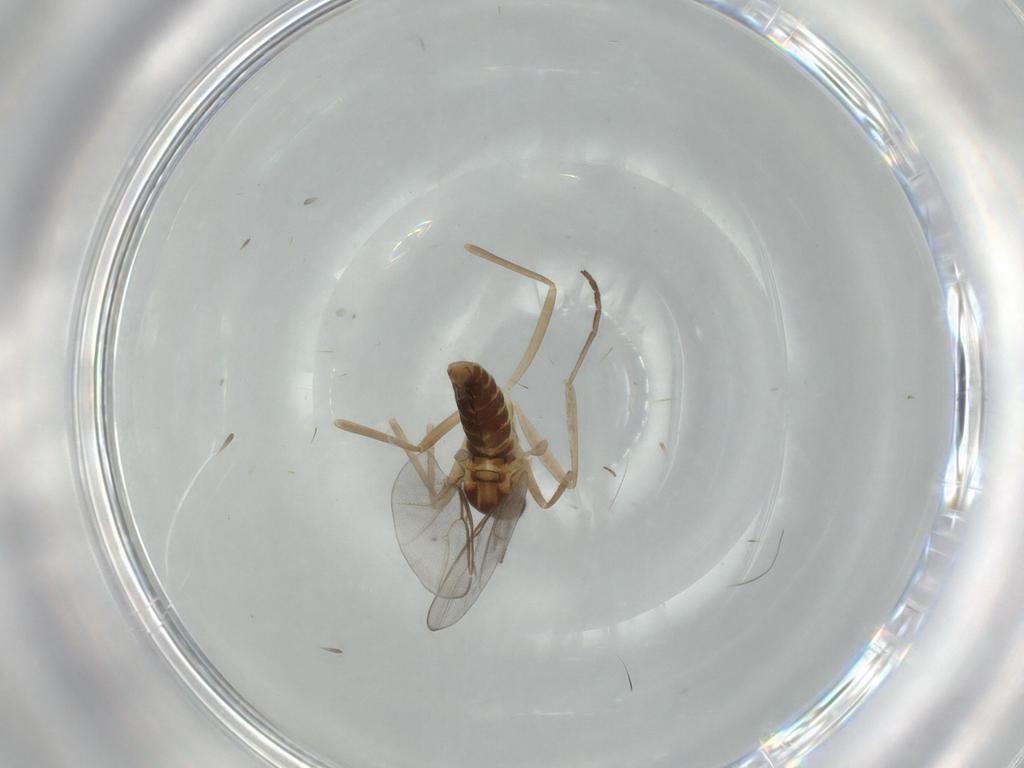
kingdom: Animalia
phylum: Arthropoda
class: Insecta
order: Diptera
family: Cecidomyiidae
